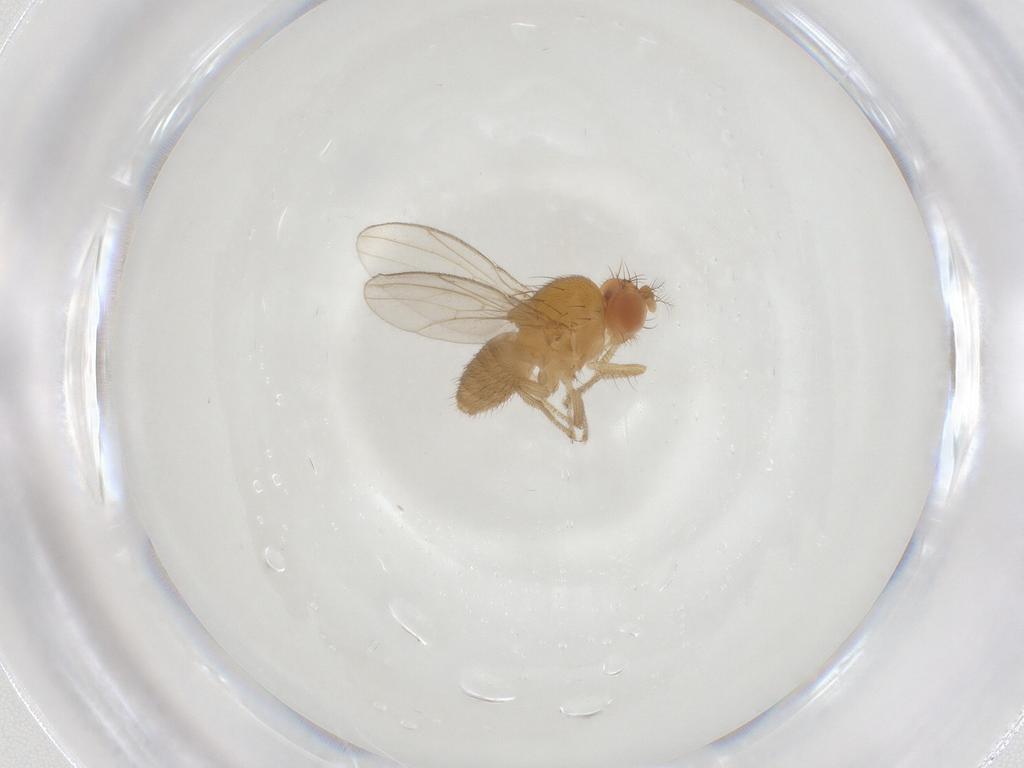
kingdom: Animalia
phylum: Arthropoda
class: Insecta
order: Diptera
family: Drosophilidae
